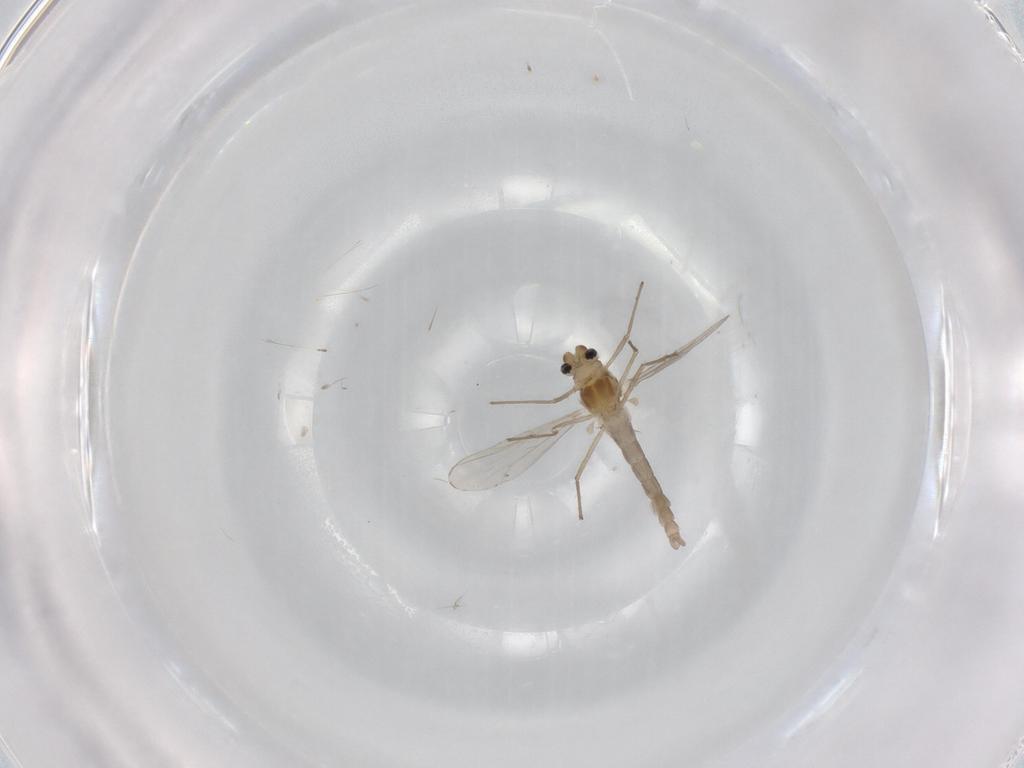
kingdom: Animalia
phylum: Arthropoda
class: Insecta
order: Diptera
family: Chironomidae
